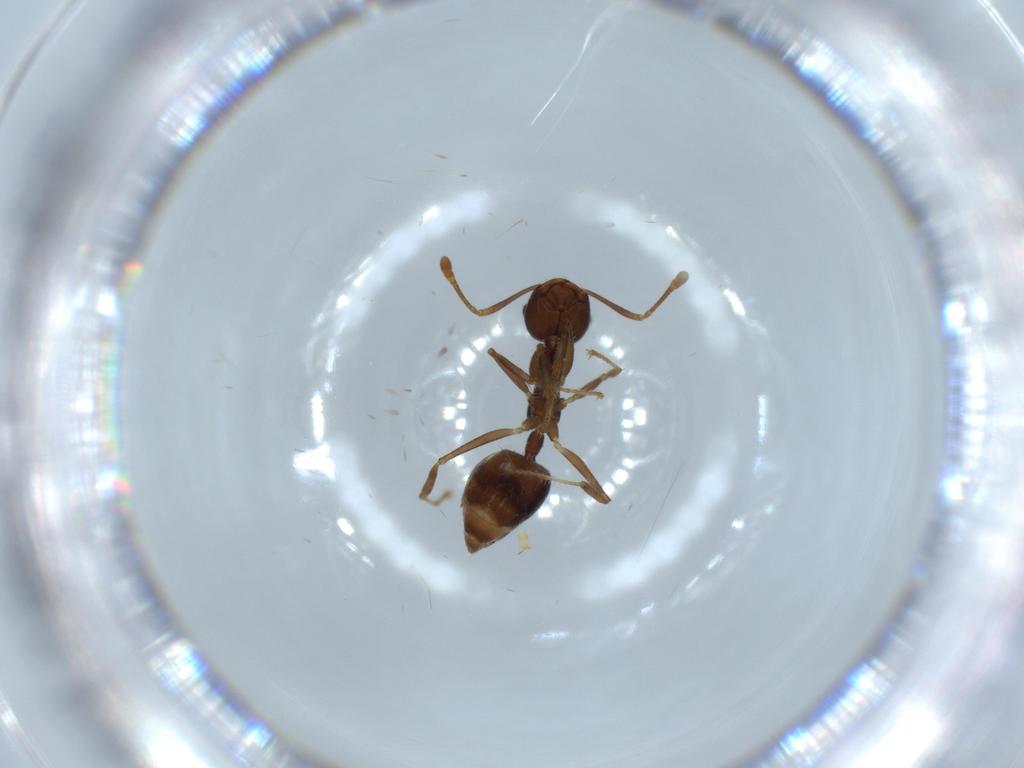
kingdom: Animalia
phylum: Arthropoda
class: Insecta
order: Hymenoptera
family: Formicidae
